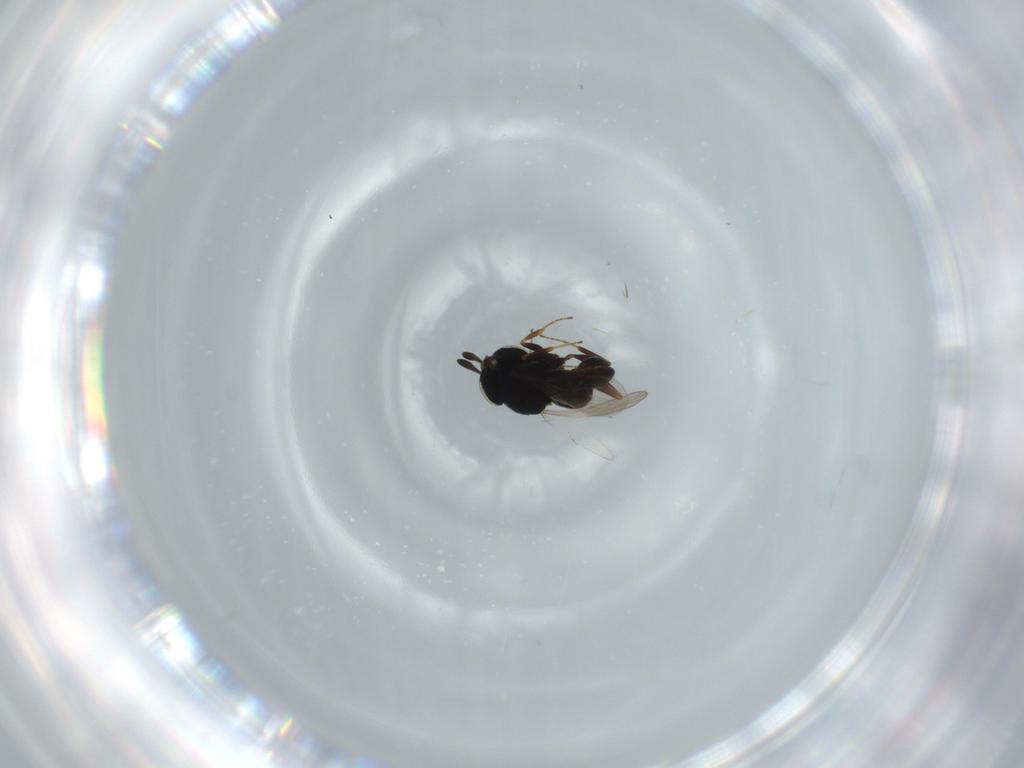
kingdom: Animalia
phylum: Arthropoda
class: Insecta
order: Hymenoptera
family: Scelionidae
